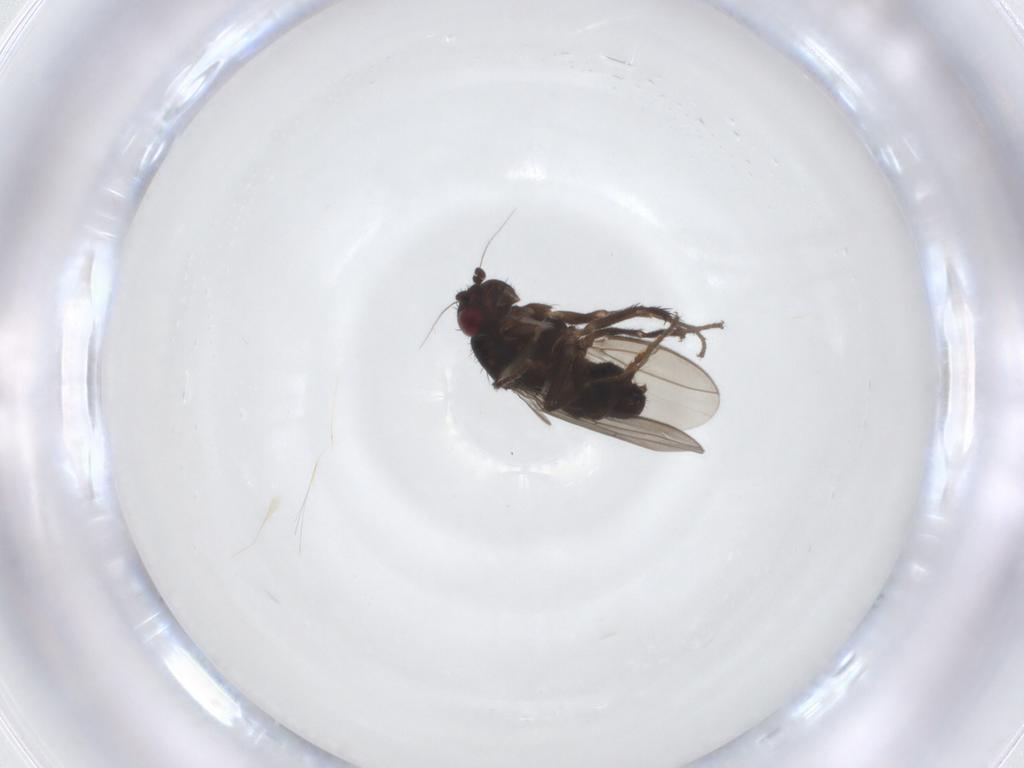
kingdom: Animalia
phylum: Arthropoda
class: Insecta
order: Diptera
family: Sphaeroceridae
